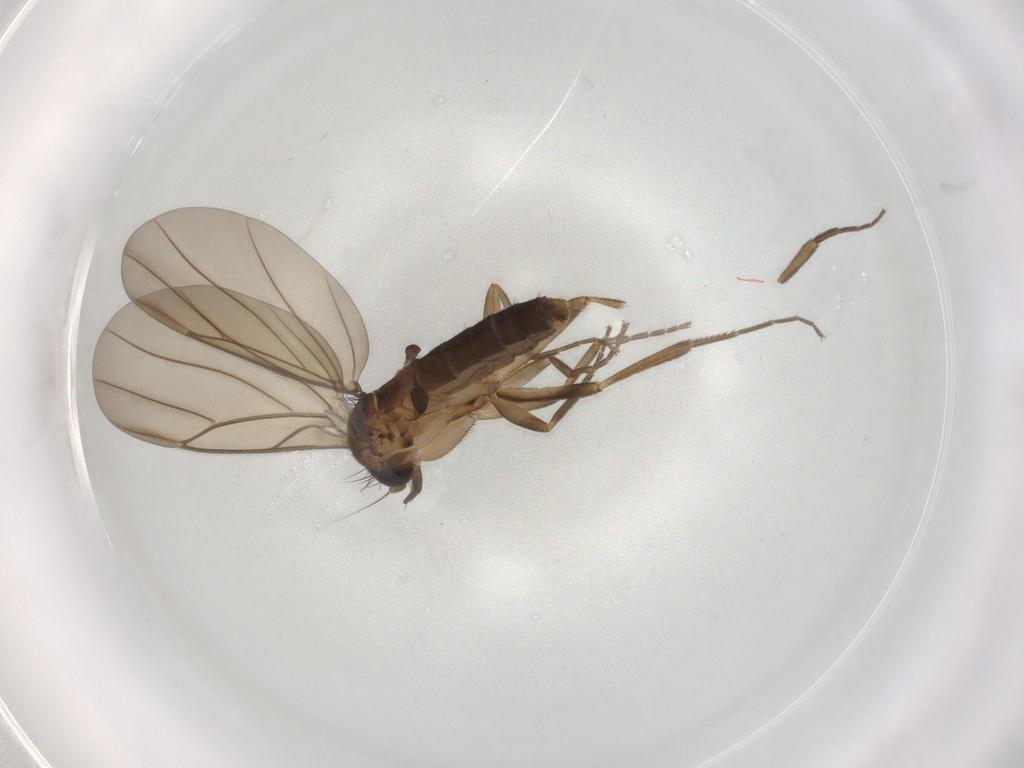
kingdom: Animalia
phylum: Arthropoda
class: Insecta
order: Diptera
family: Phoridae
